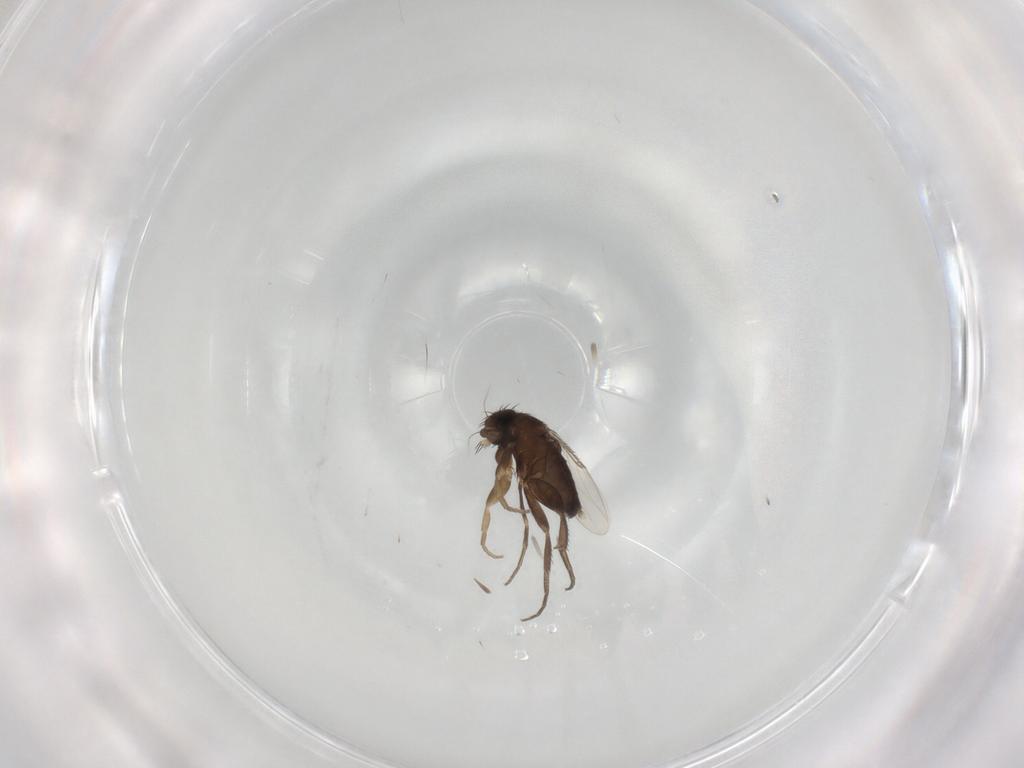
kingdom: Animalia
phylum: Arthropoda
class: Insecta
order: Diptera
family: Phoridae
